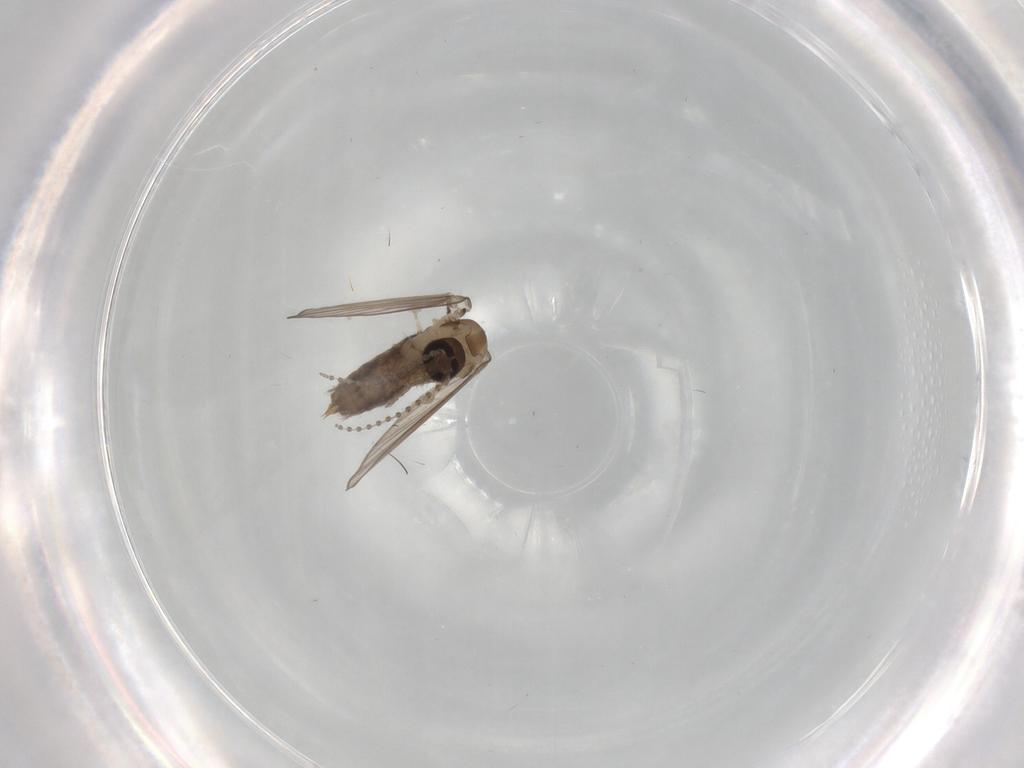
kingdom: Animalia
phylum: Arthropoda
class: Insecta
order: Diptera
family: Psychodidae
